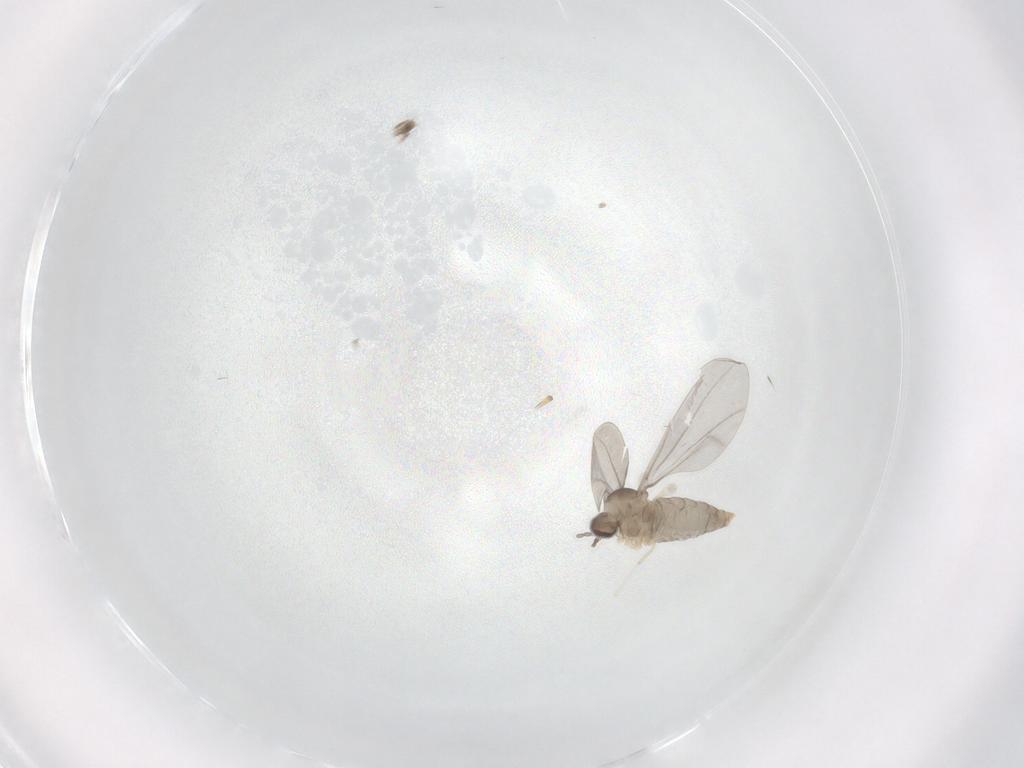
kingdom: Animalia
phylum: Arthropoda
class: Insecta
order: Diptera
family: Cecidomyiidae
